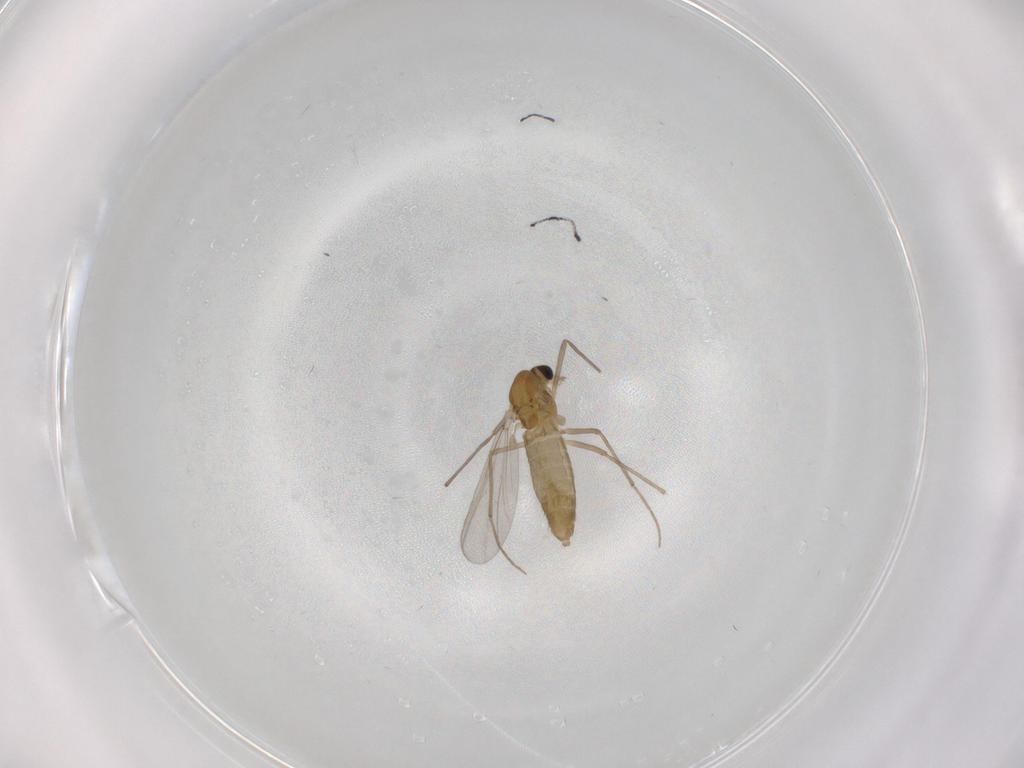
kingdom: Animalia
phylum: Arthropoda
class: Insecta
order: Diptera
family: Chironomidae
